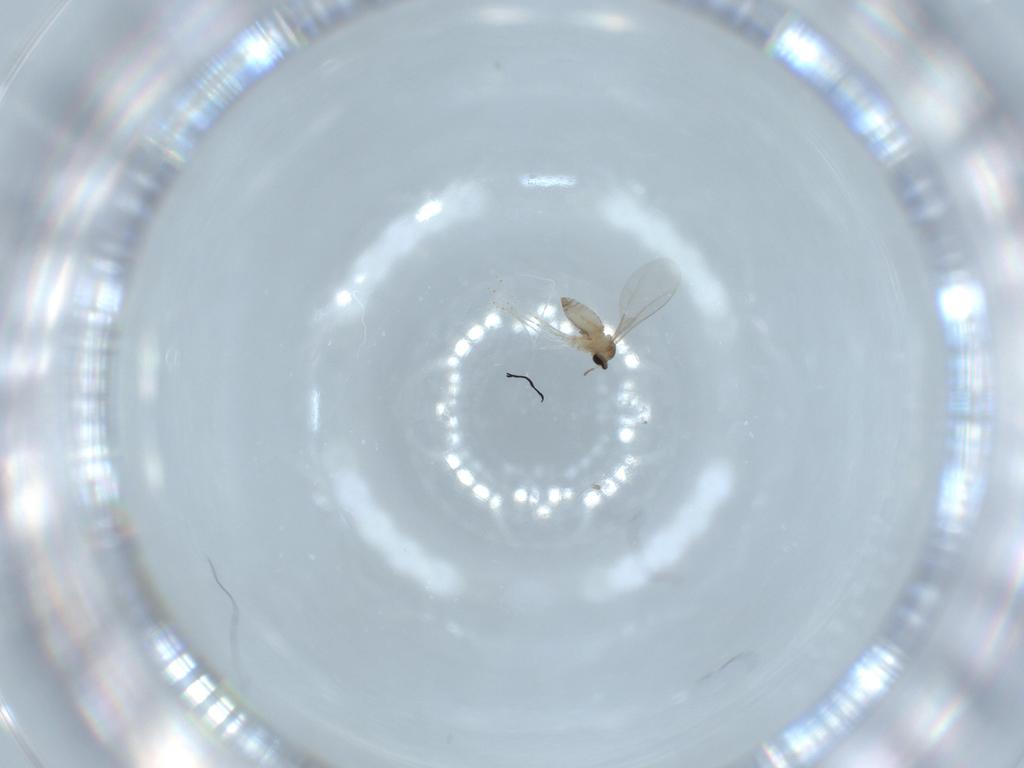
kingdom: Animalia
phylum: Arthropoda
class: Insecta
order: Diptera
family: Cecidomyiidae
